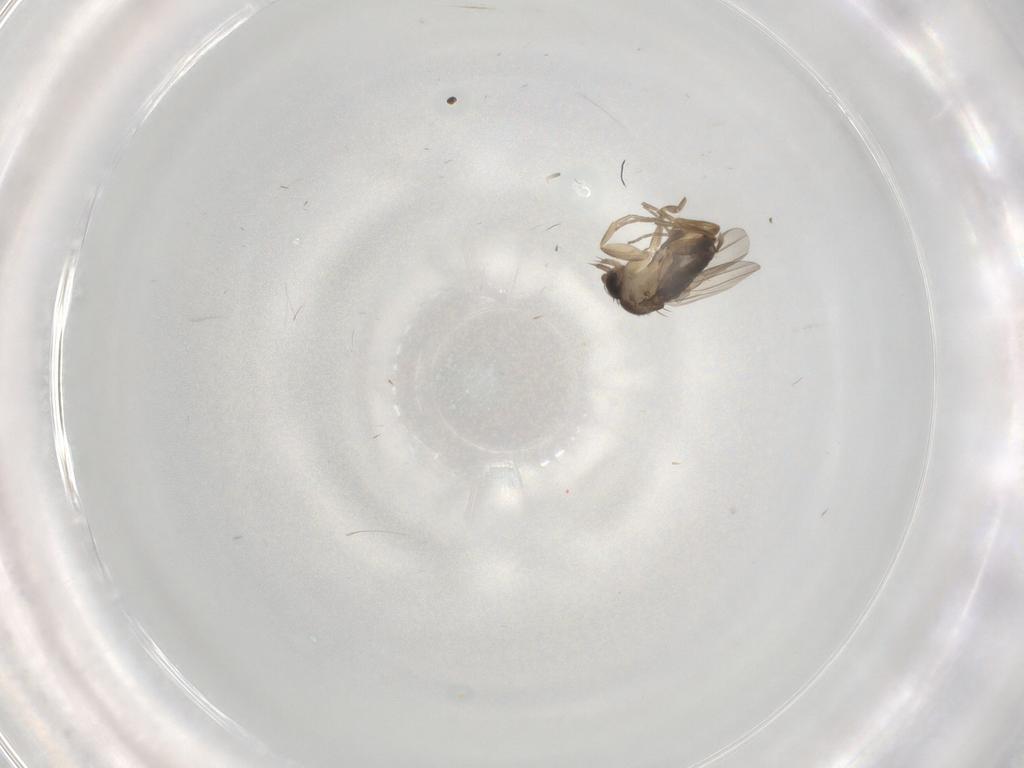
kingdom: Animalia
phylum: Arthropoda
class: Insecta
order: Diptera
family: Phoridae
